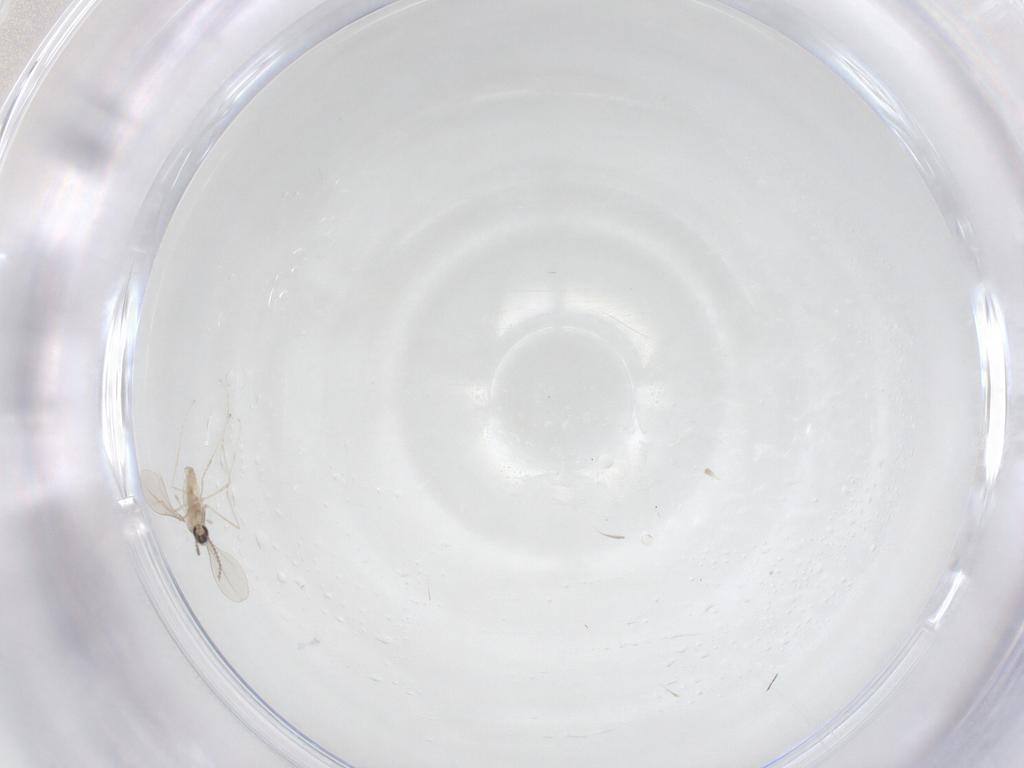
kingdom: Animalia
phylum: Arthropoda
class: Insecta
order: Diptera
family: Cecidomyiidae
